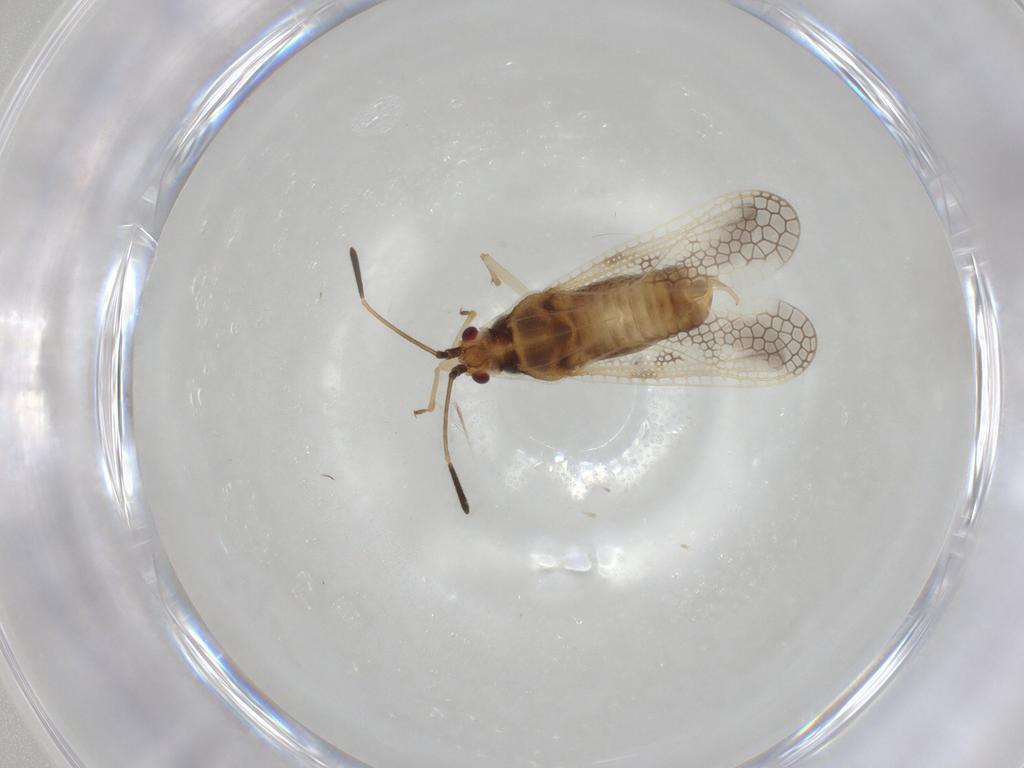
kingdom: Animalia
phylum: Arthropoda
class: Insecta
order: Hemiptera
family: Tingidae
